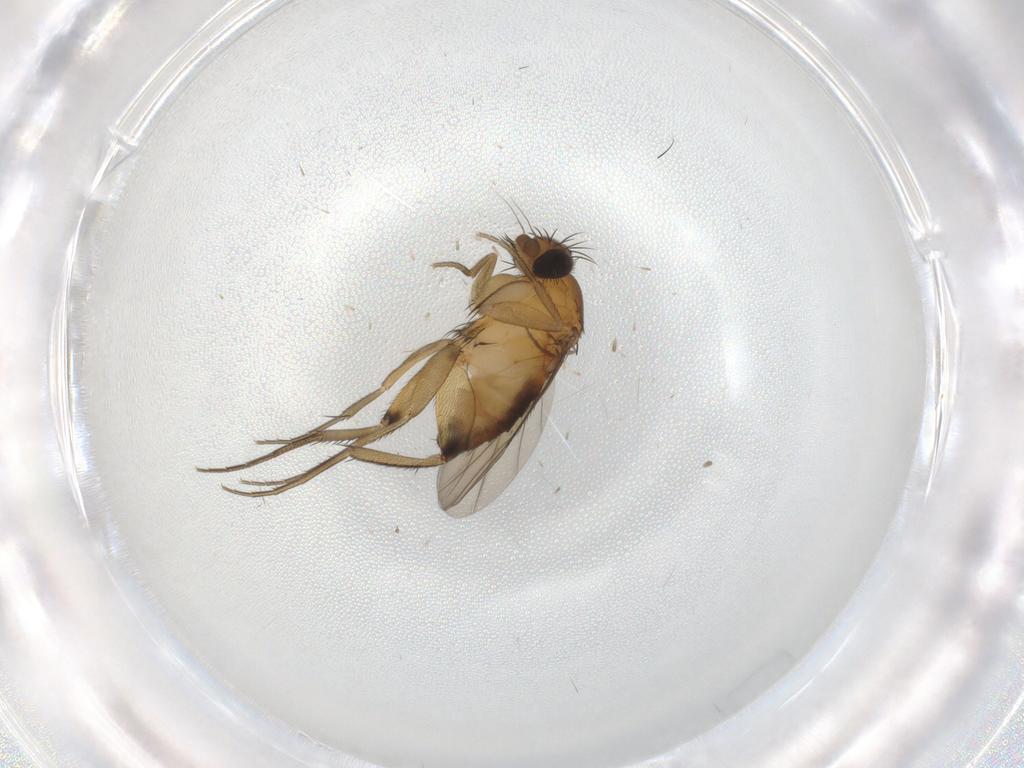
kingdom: Animalia
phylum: Arthropoda
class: Insecta
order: Diptera
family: Phoridae
